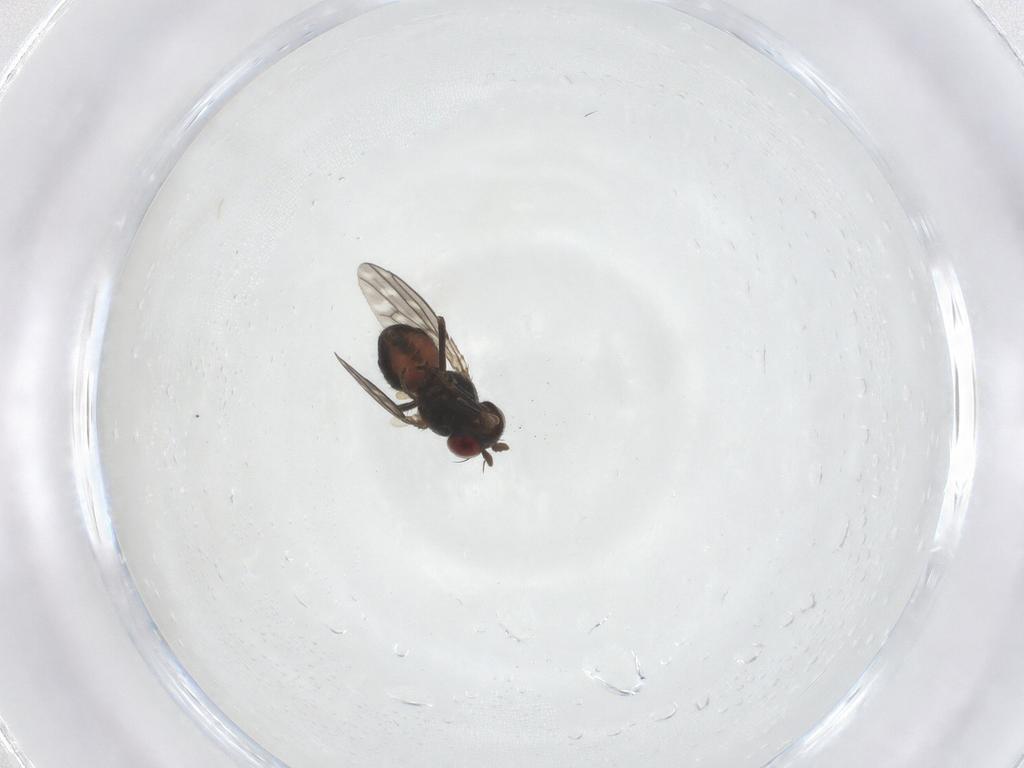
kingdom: Animalia
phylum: Arthropoda
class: Insecta
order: Diptera
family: Ephydridae
